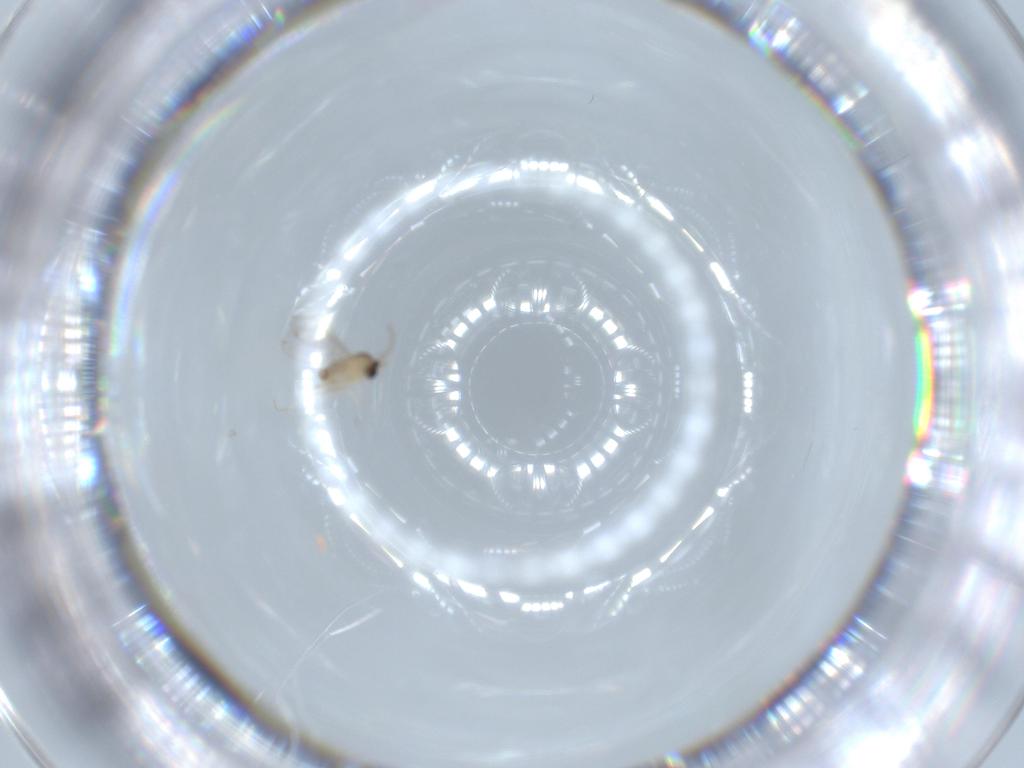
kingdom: Animalia
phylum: Arthropoda
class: Insecta
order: Diptera
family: Cecidomyiidae
